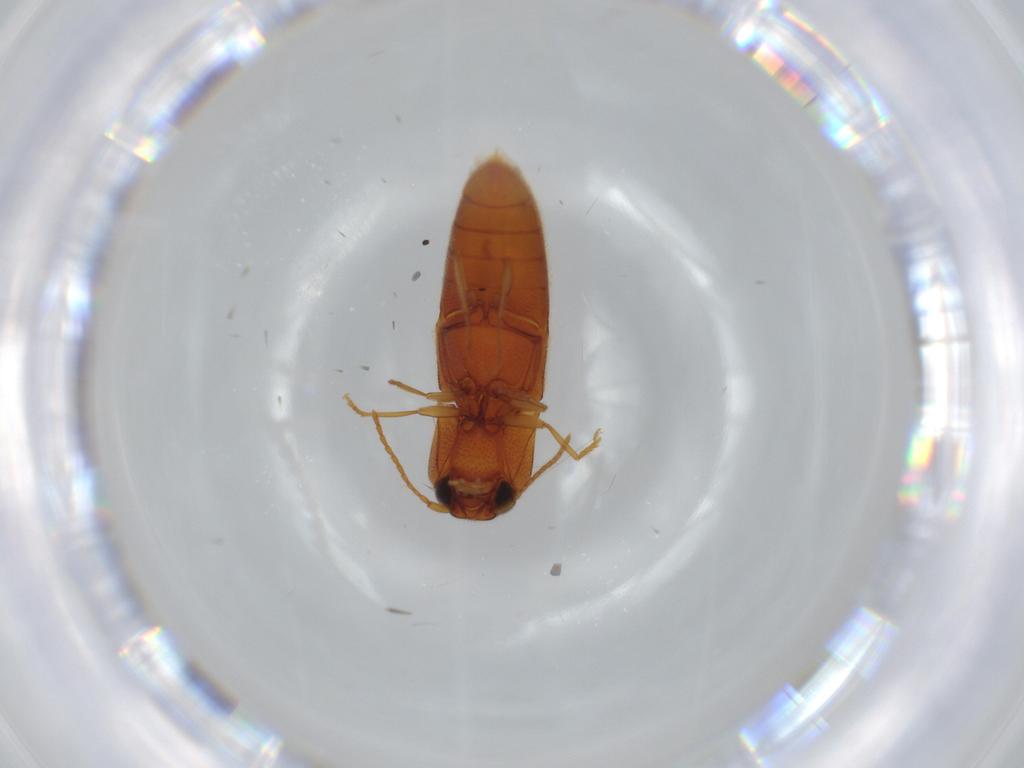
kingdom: Animalia
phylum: Arthropoda
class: Insecta
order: Coleoptera
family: Elateridae
